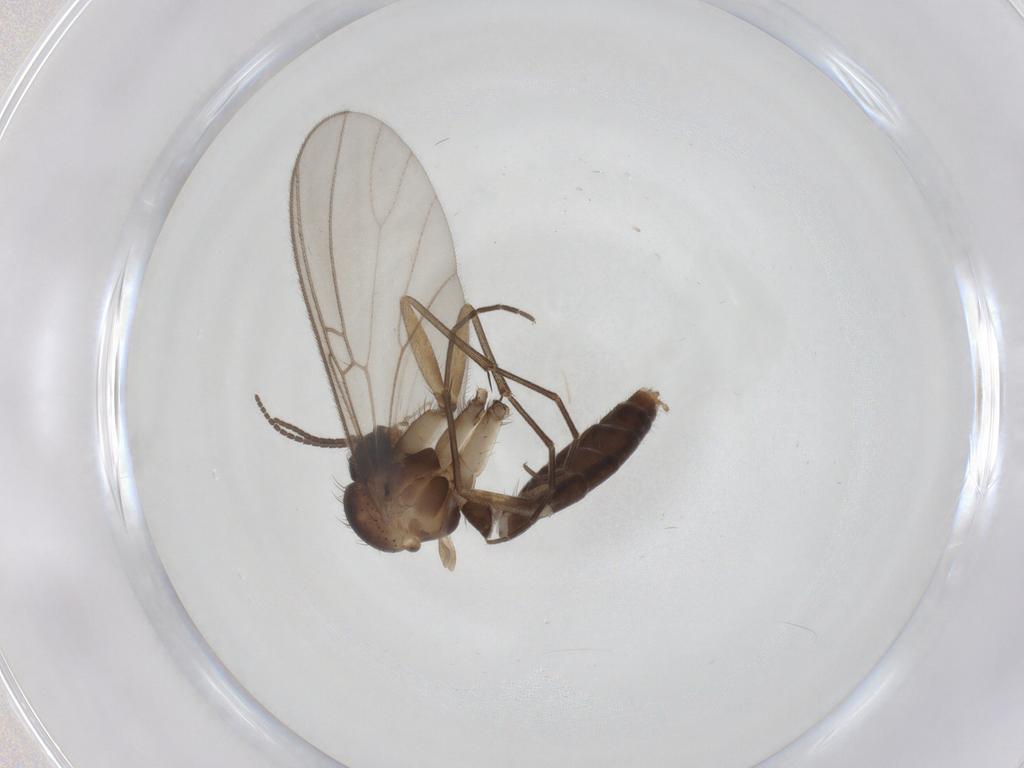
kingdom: Animalia
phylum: Arthropoda
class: Insecta
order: Diptera
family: Mycetophilidae
